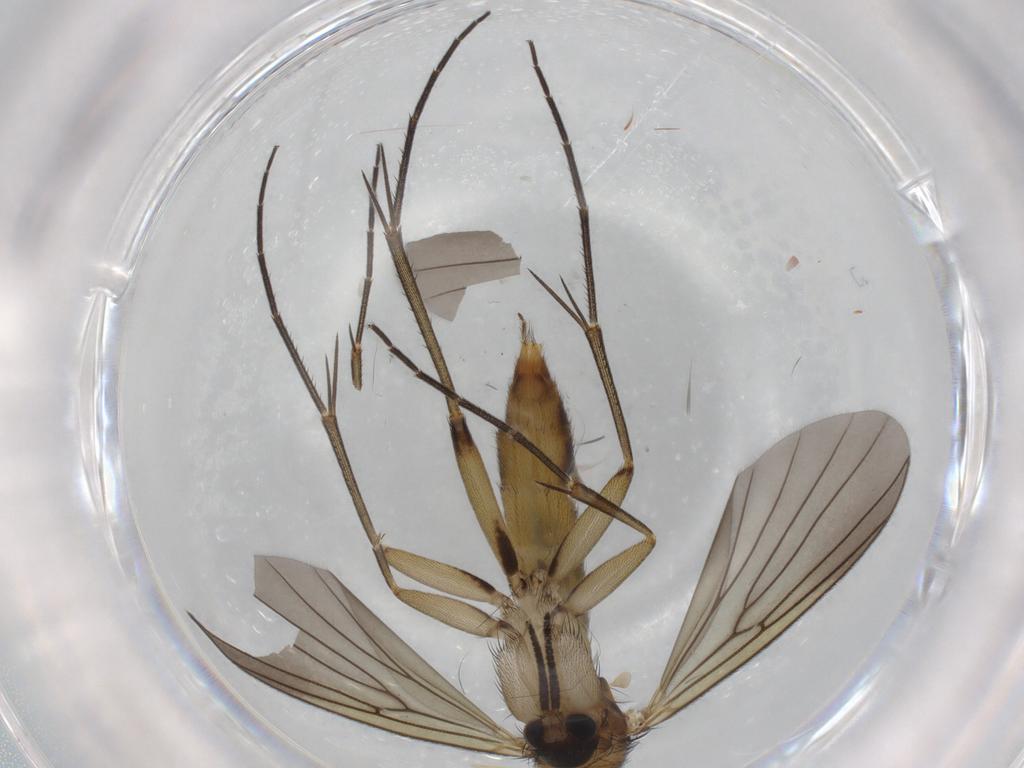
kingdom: Animalia
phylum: Arthropoda
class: Insecta
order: Diptera
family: Mycetophilidae
